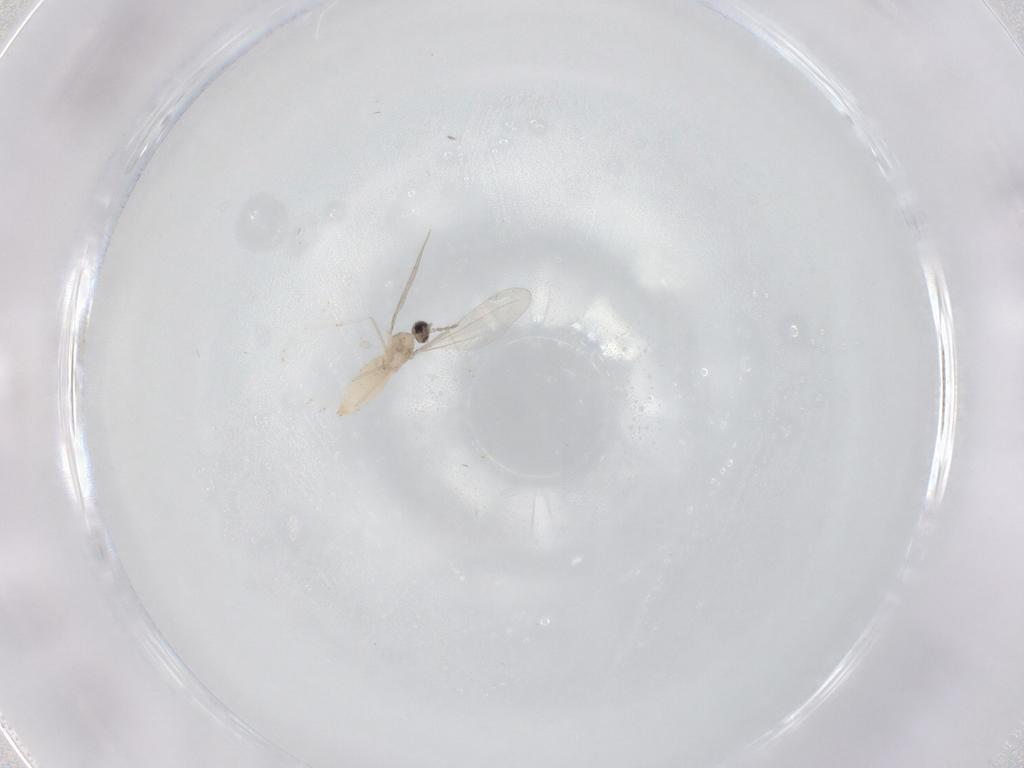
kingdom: Animalia
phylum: Arthropoda
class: Insecta
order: Diptera
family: Cecidomyiidae
